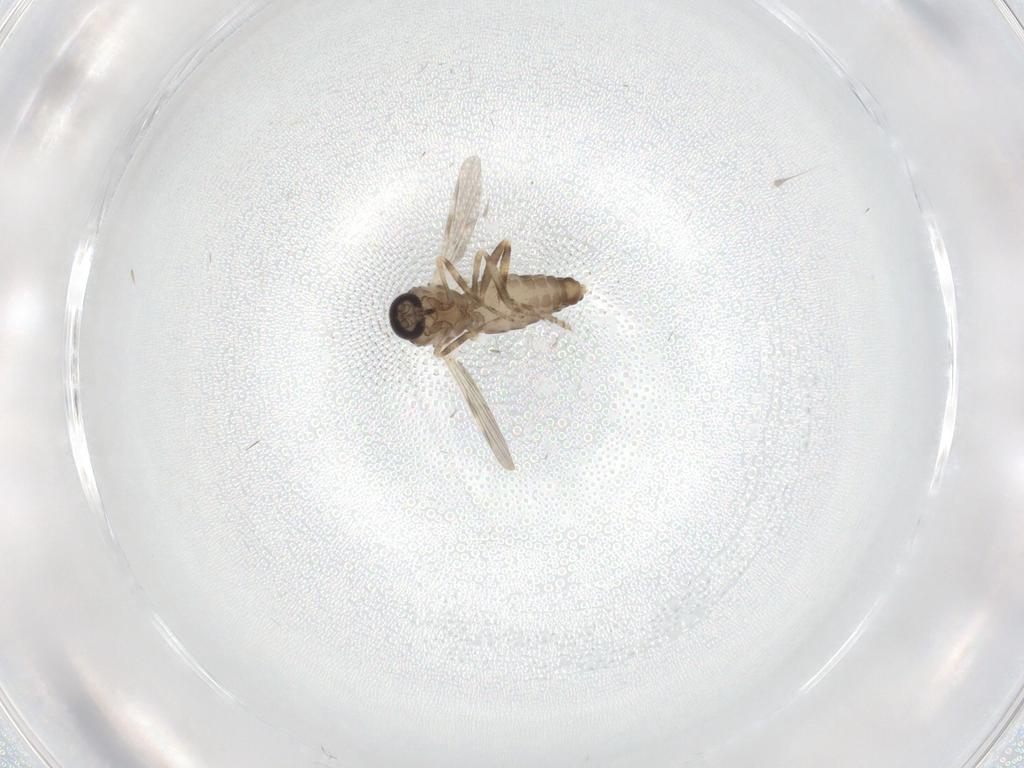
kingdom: Animalia
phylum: Arthropoda
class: Insecta
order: Diptera
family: Ceratopogonidae
